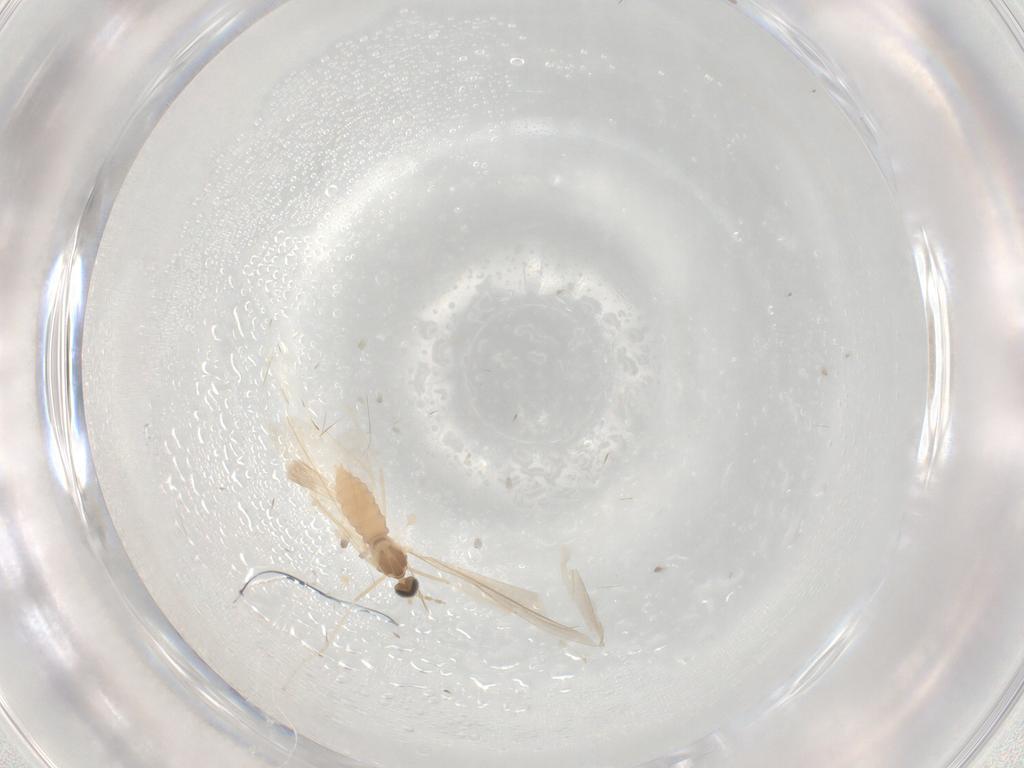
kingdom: Animalia
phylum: Arthropoda
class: Insecta
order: Diptera
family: Cecidomyiidae
